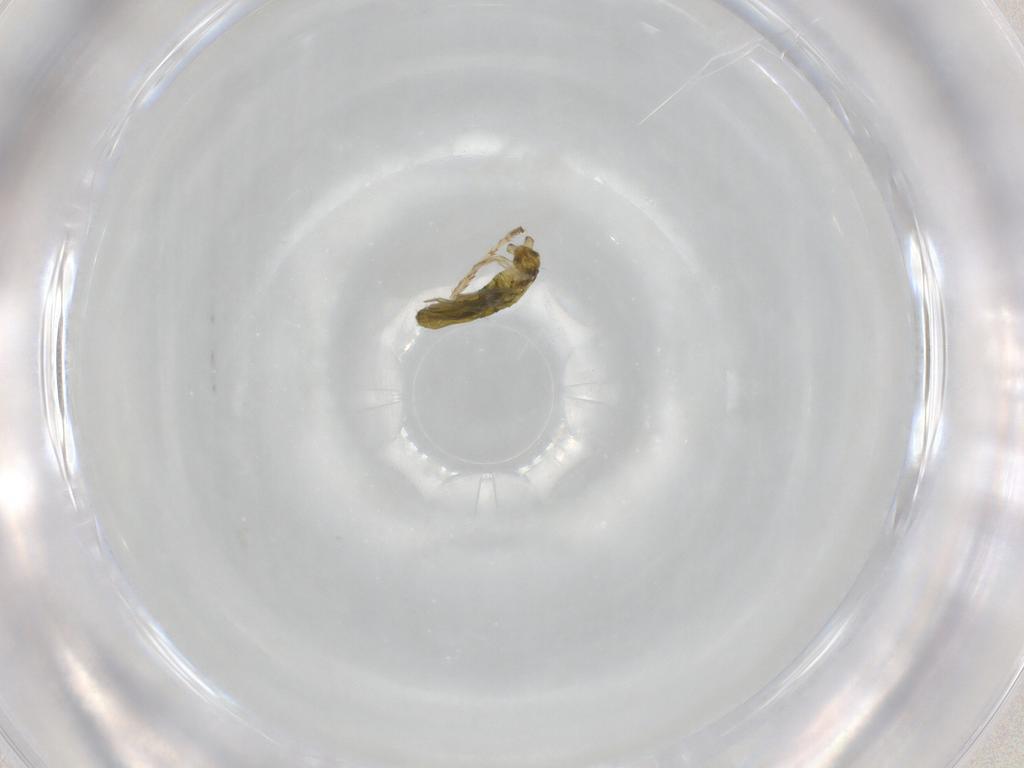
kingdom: Animalia
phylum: Arthropoda
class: Collembola
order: Entomobryomorpha
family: Entomobryidae
